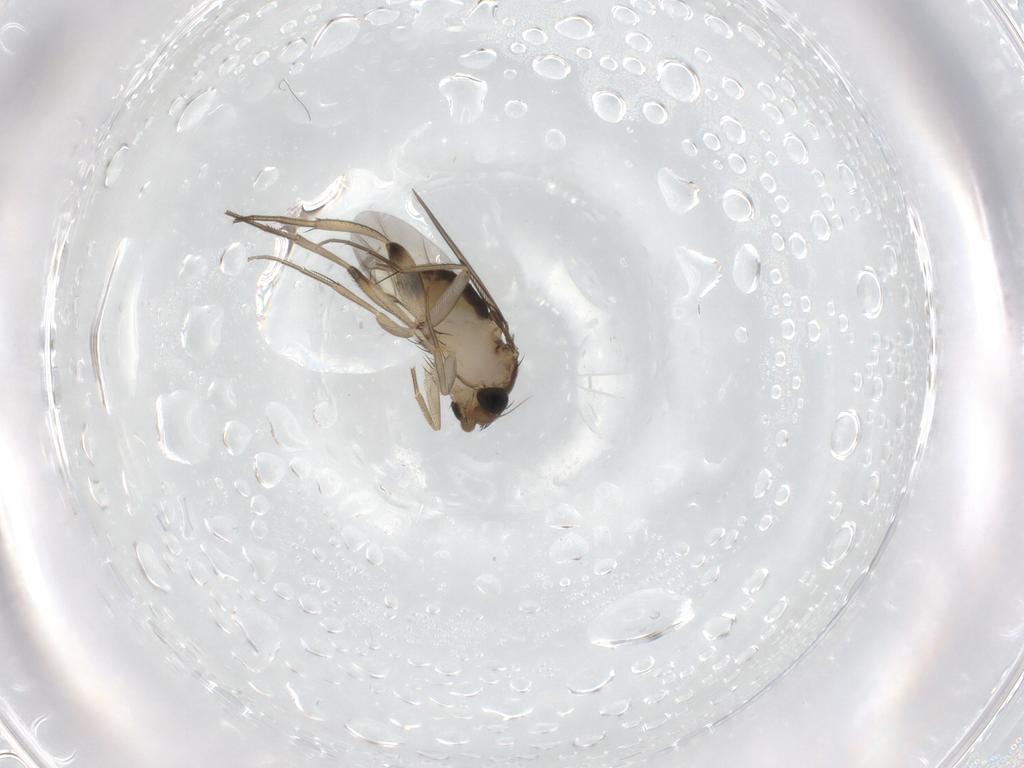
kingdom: Animalia
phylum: Arthropoda
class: Insecta
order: Diptera
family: Phoridae
